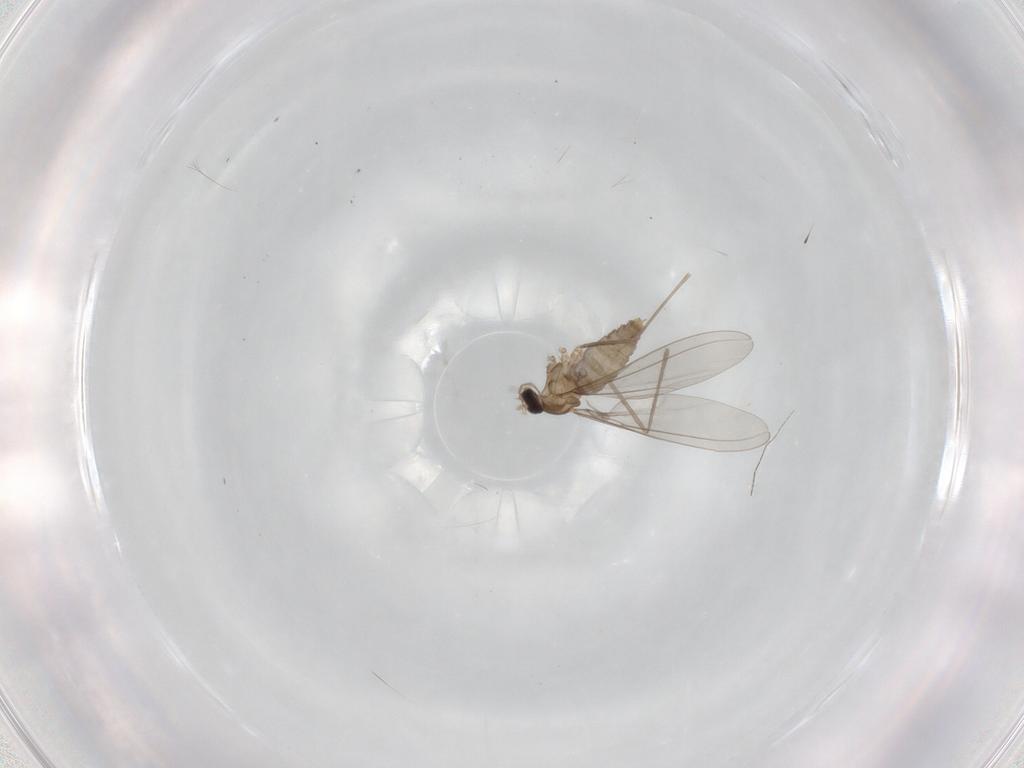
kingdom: Animalia
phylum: Arthropoda
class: Insecta
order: Diptera
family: Cecidomyiidae
